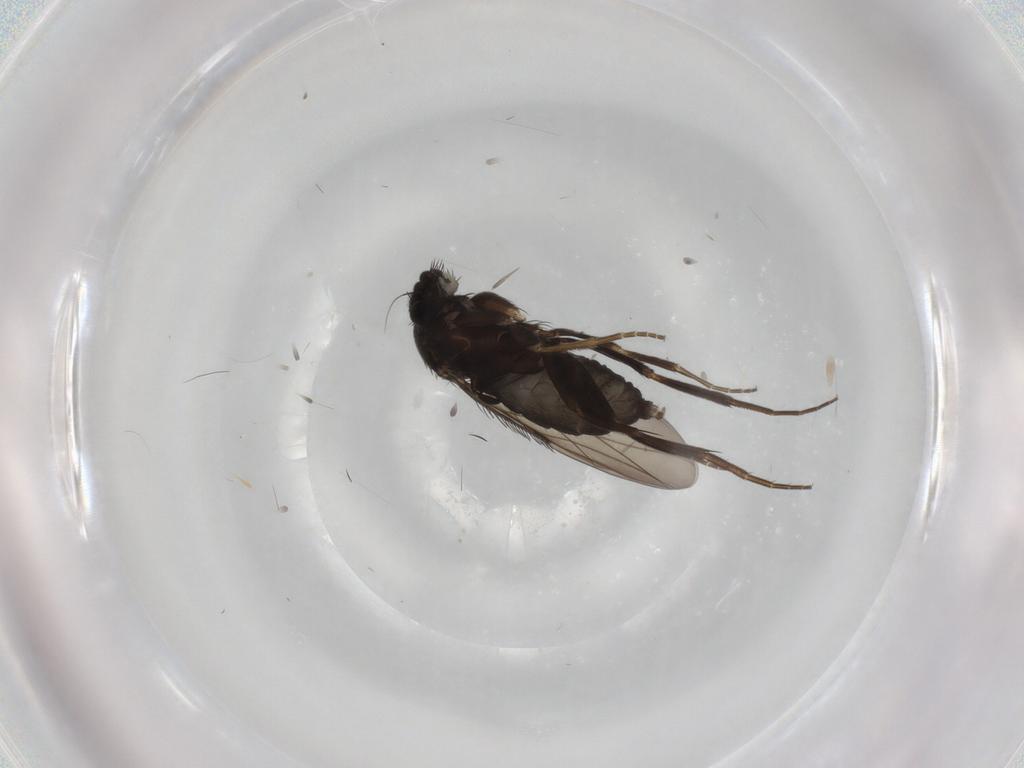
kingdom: Animalia
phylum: Arthropoda
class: Insecta
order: Diptera
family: Phoridae
